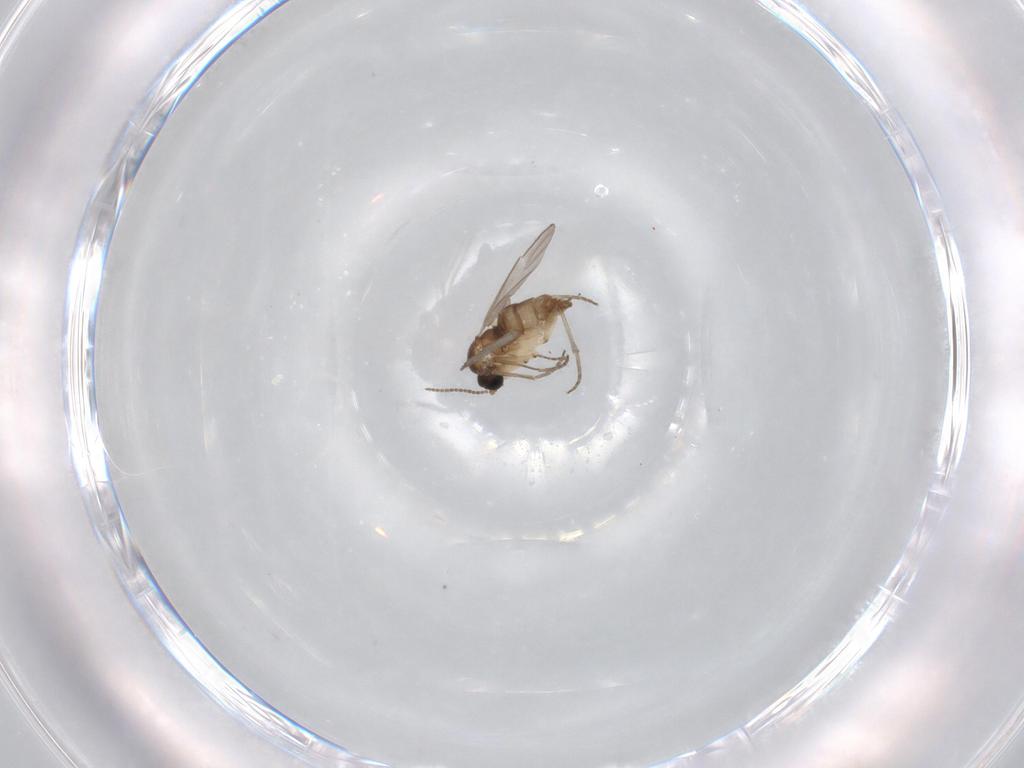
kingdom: Animalia
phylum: Arthropoda
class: Insecta
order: Diptera
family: Sciaridae
